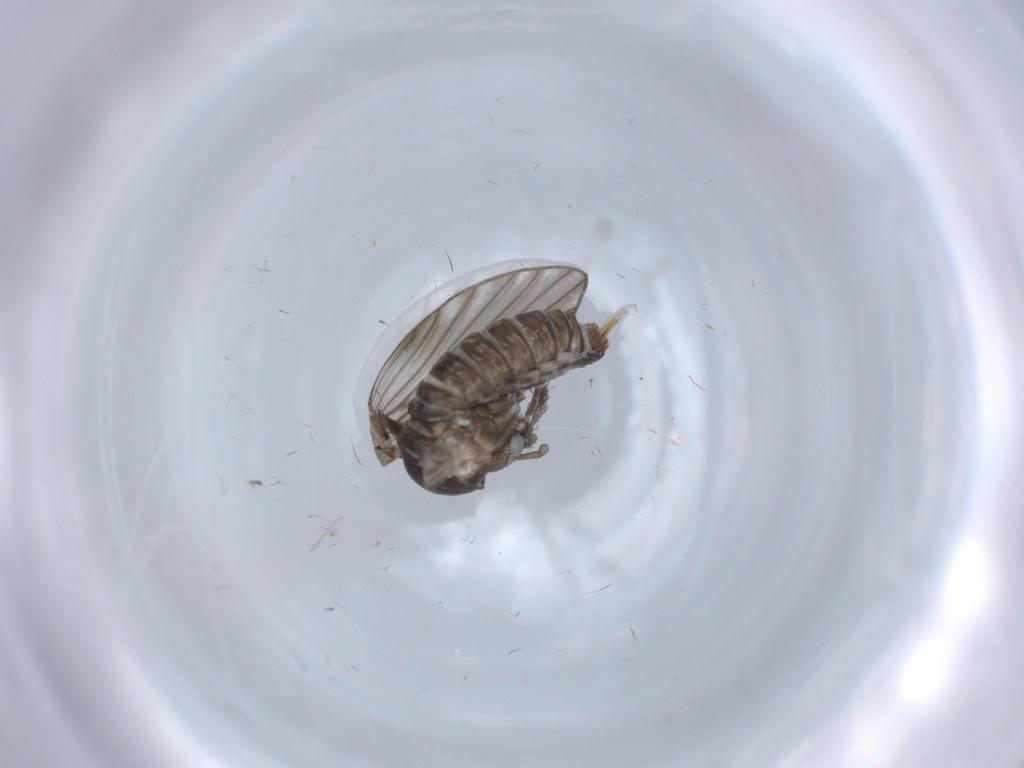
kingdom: Animalia
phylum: Arthropoda
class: Insecta
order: Diptera
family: Psychodidae
